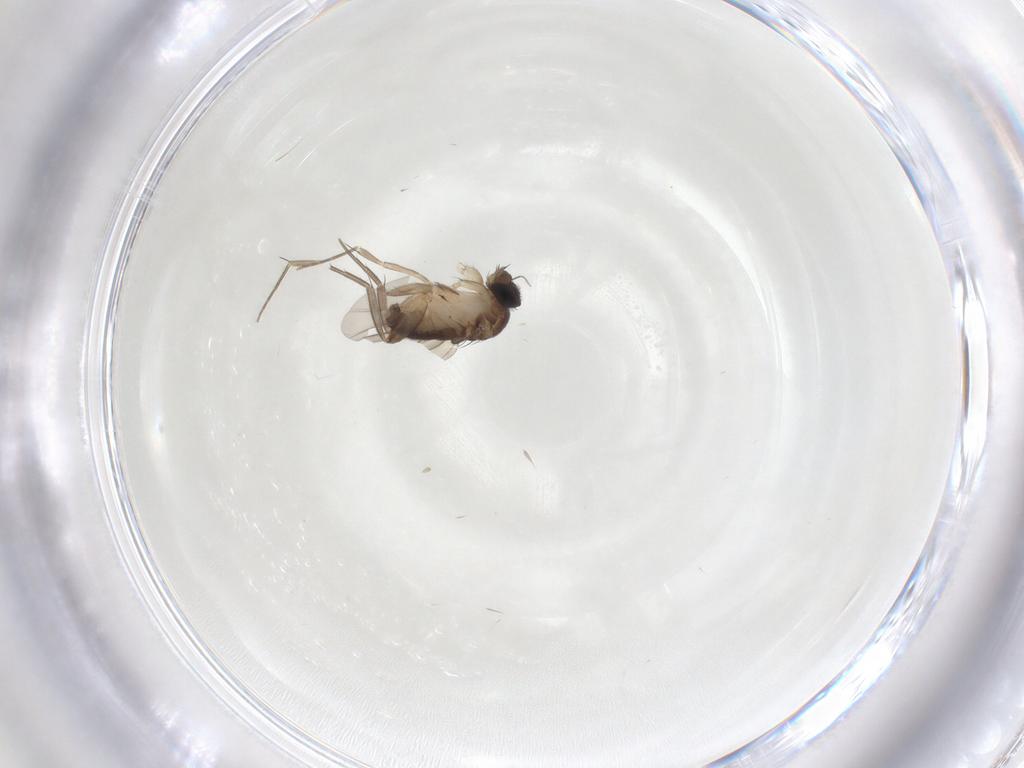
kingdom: Animalia
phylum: Arthropoda
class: Insecta
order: Diptera
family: Phoridae
